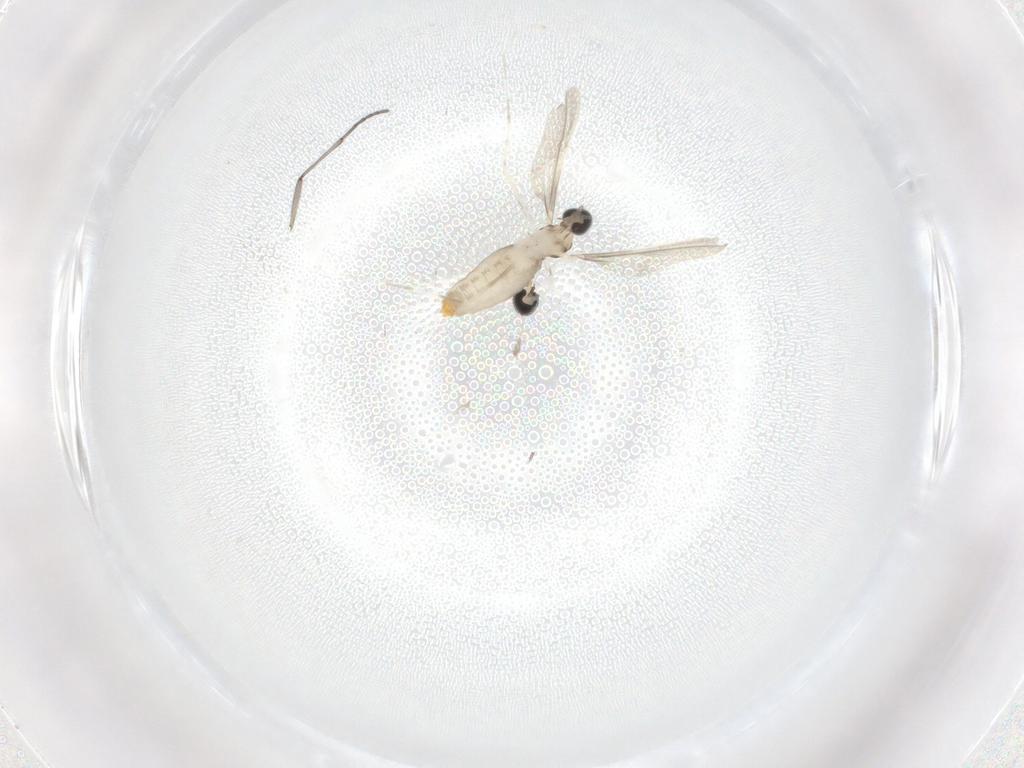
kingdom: Animalia
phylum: Arthropoda
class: Insecta
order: Diptera
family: Cecidomyiidae
